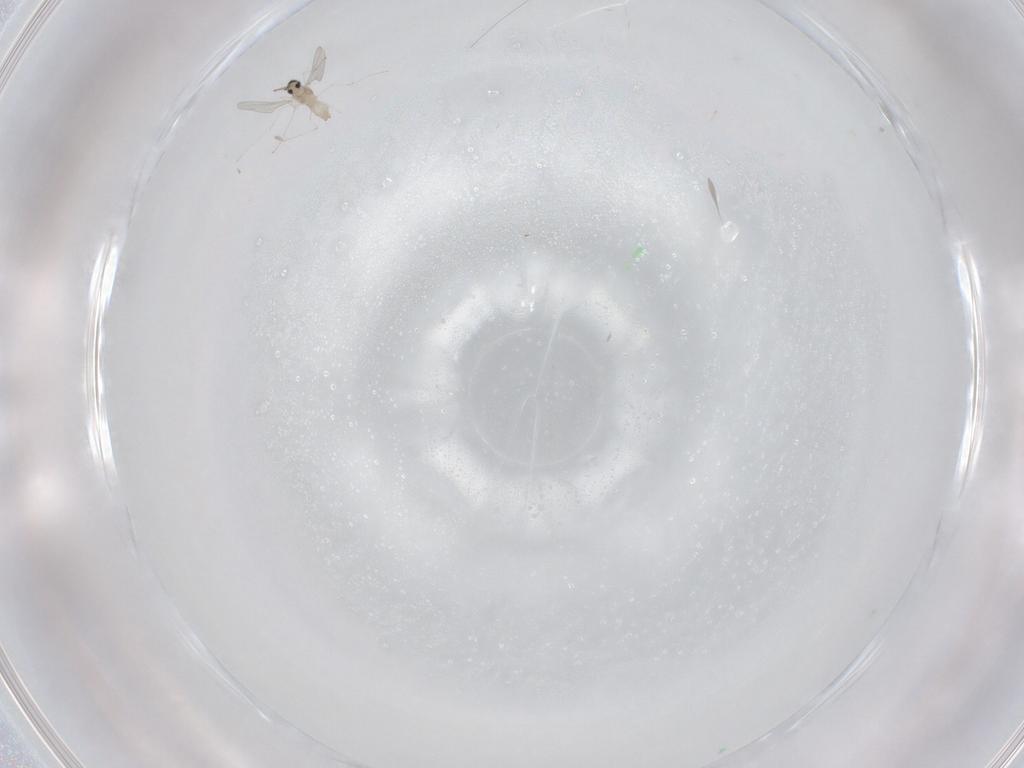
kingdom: Animalia
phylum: Arthropoda
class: Insecta
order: Diptera
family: Cecidomyiidae
